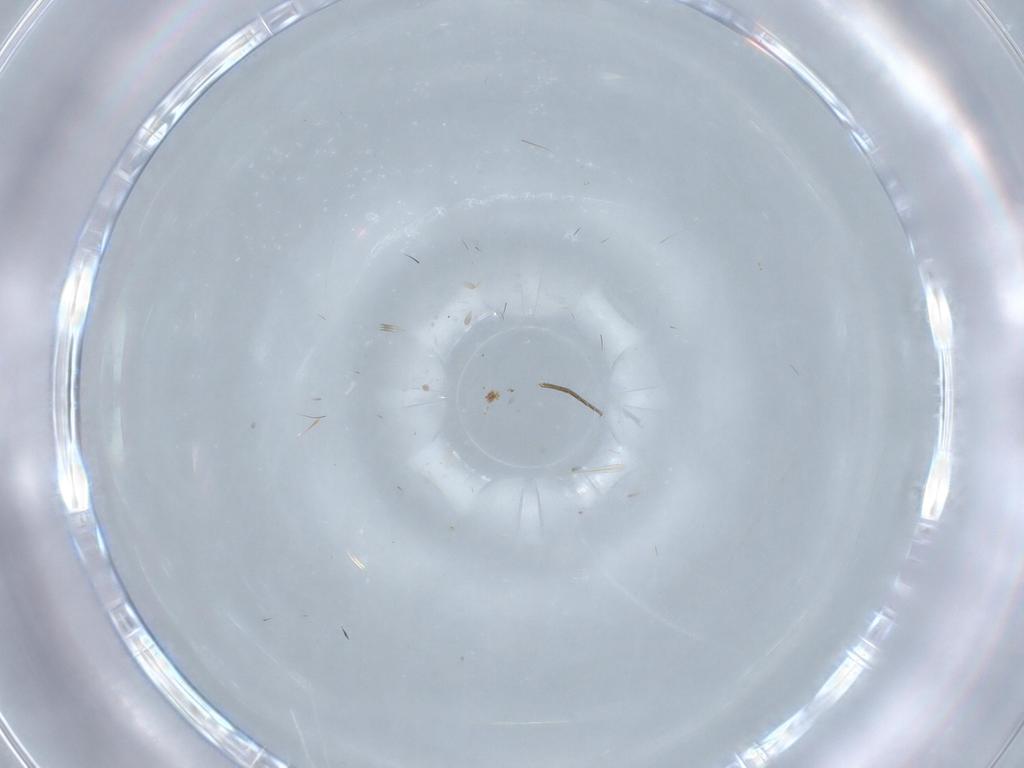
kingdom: Animalia
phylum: Arthropoda
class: Insecta
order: Diptera
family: Phoridae
